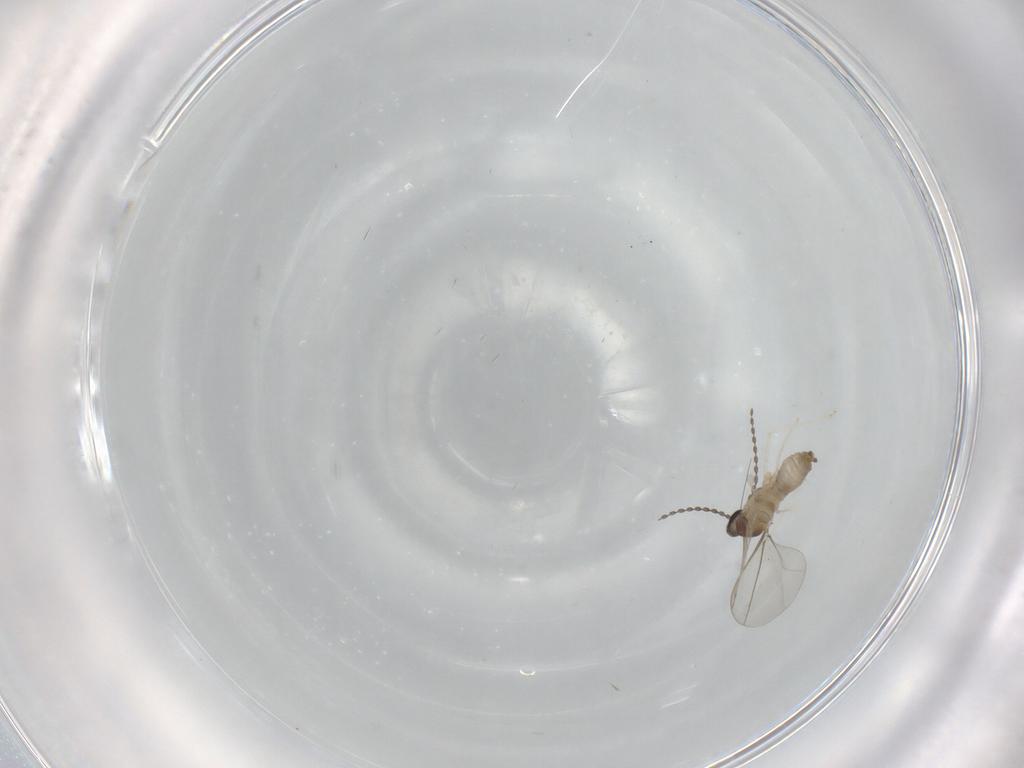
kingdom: Animalia
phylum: Arthropoda
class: Insecta
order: Diptera
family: Cecidomyiidae
